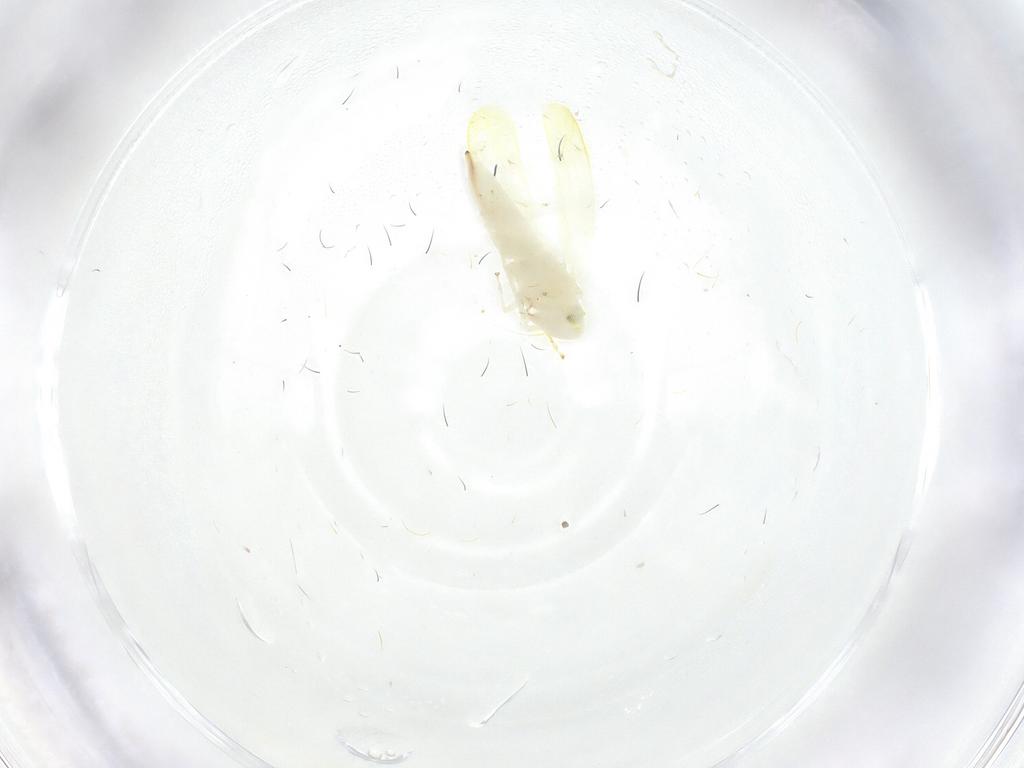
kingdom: Animalia
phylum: Arthropoda
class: Insecta
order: Hemiptera
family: Cicadellidae
